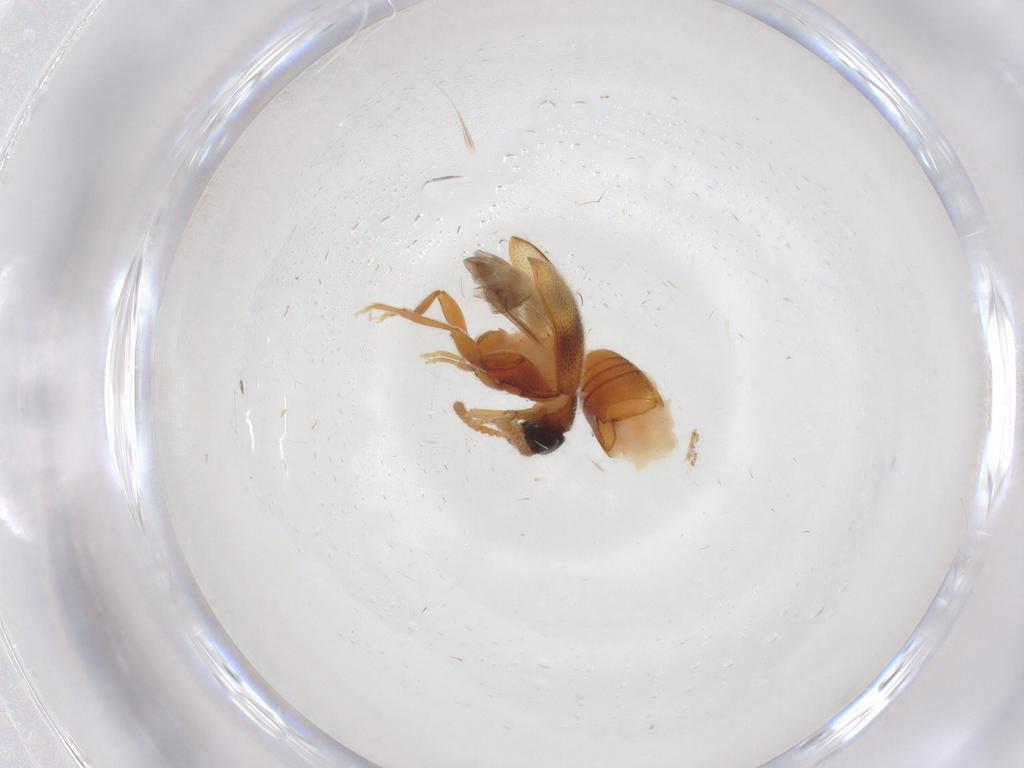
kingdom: Animalia
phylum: Arthropoda
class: Insecta
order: Coleoptera
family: Aderidae
